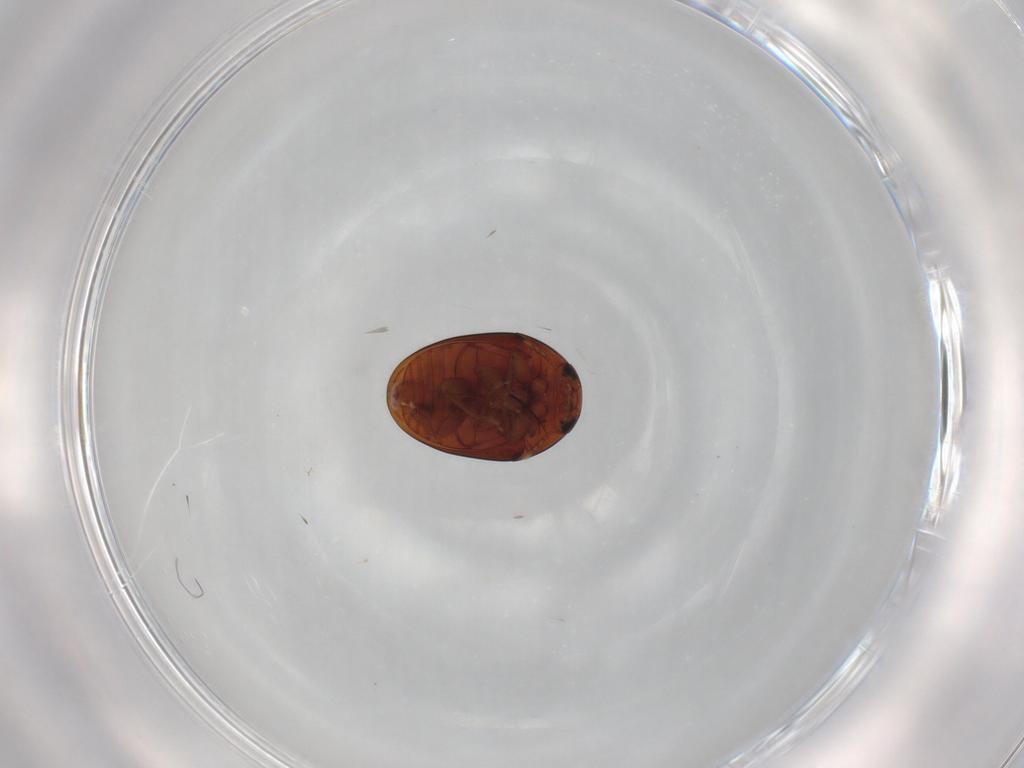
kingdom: Animalia
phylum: Arthropoda
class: Insecta
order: Coleoptera
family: Phalacridae
